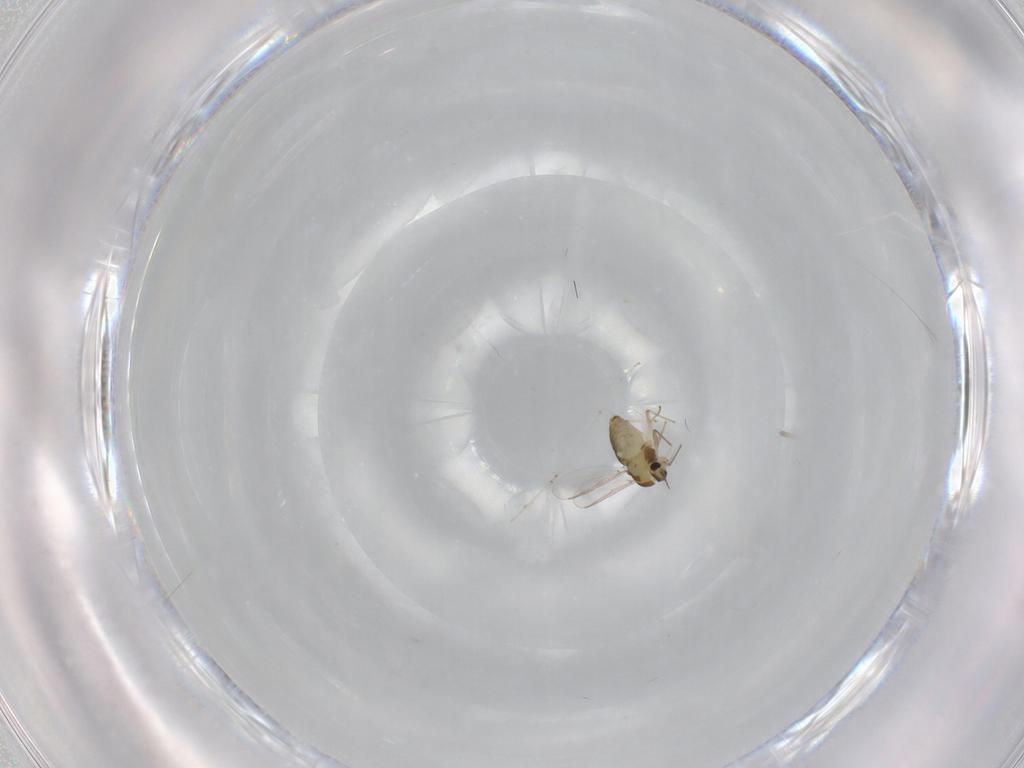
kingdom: Animalia
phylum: Arthropoda
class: Insecta
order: Diptera
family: Chironomidae
